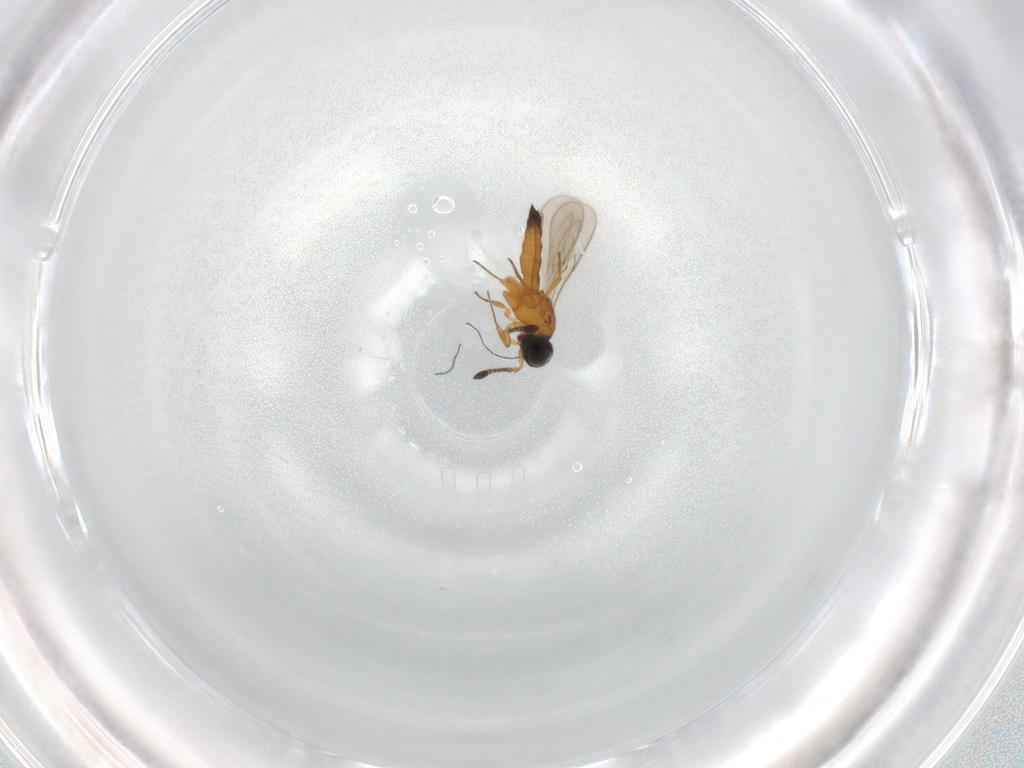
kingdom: Animalia
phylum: Arthropoda
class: Insecta
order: Hymenoptera
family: Scelionidae
